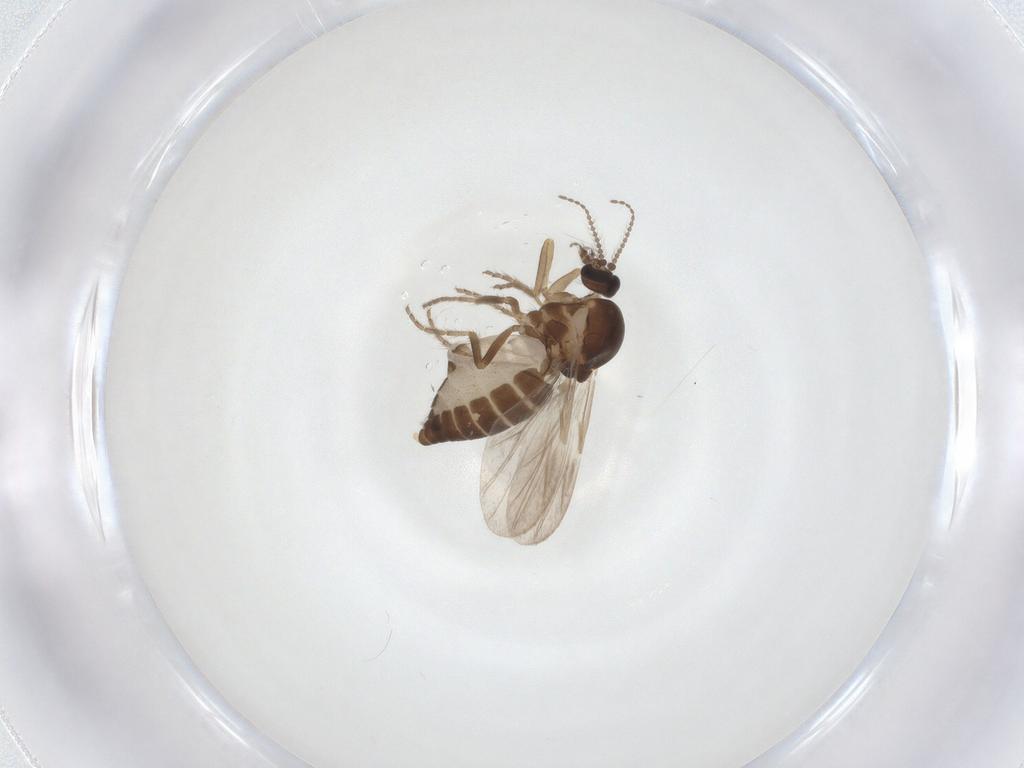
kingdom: Animalia
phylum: Arthropoda
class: Insecta
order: Diptera
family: Ceratopogonidae
